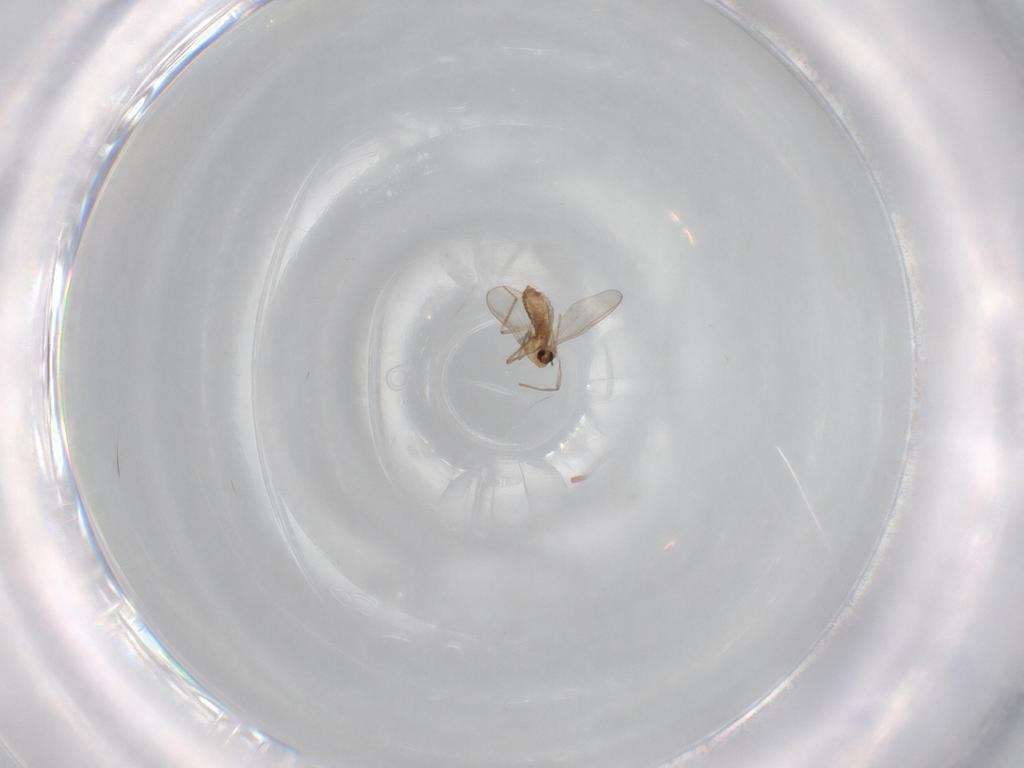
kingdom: Animalia
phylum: Arthropoda
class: Insecta
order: Diptera
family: Chironomidae
